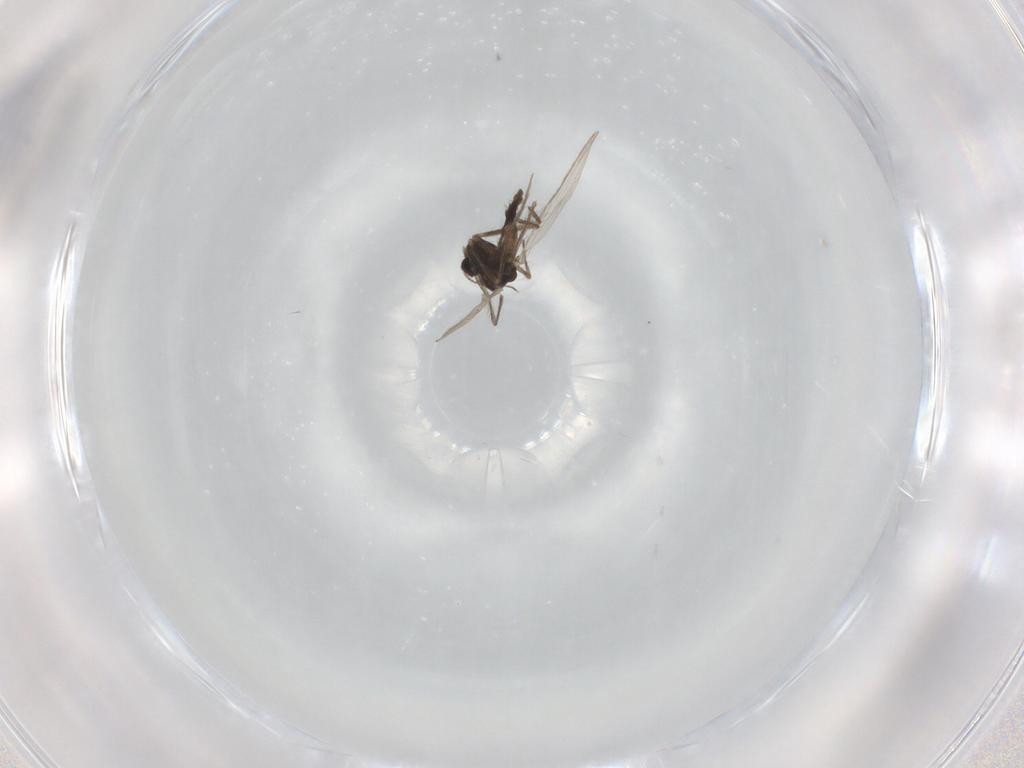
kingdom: Animalia
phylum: Arthropoda
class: Insecta
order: Diptera
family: Chironomidae
